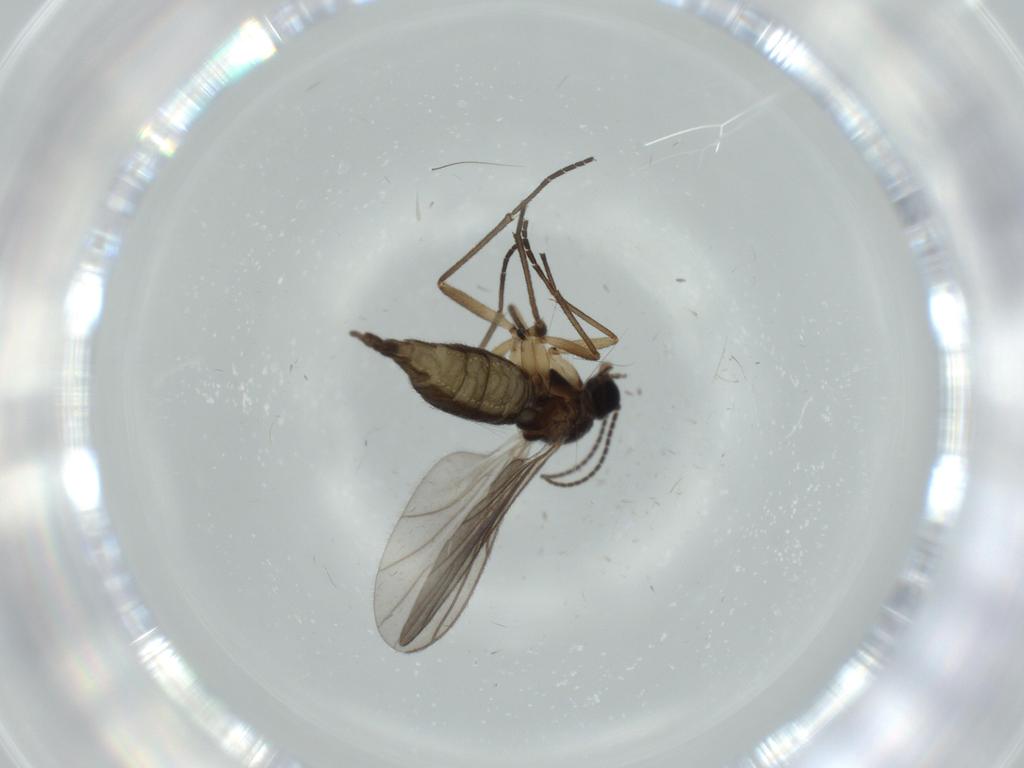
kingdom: Animalia
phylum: Arthropoda
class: Insecta
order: Diptera
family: Sciaridae
